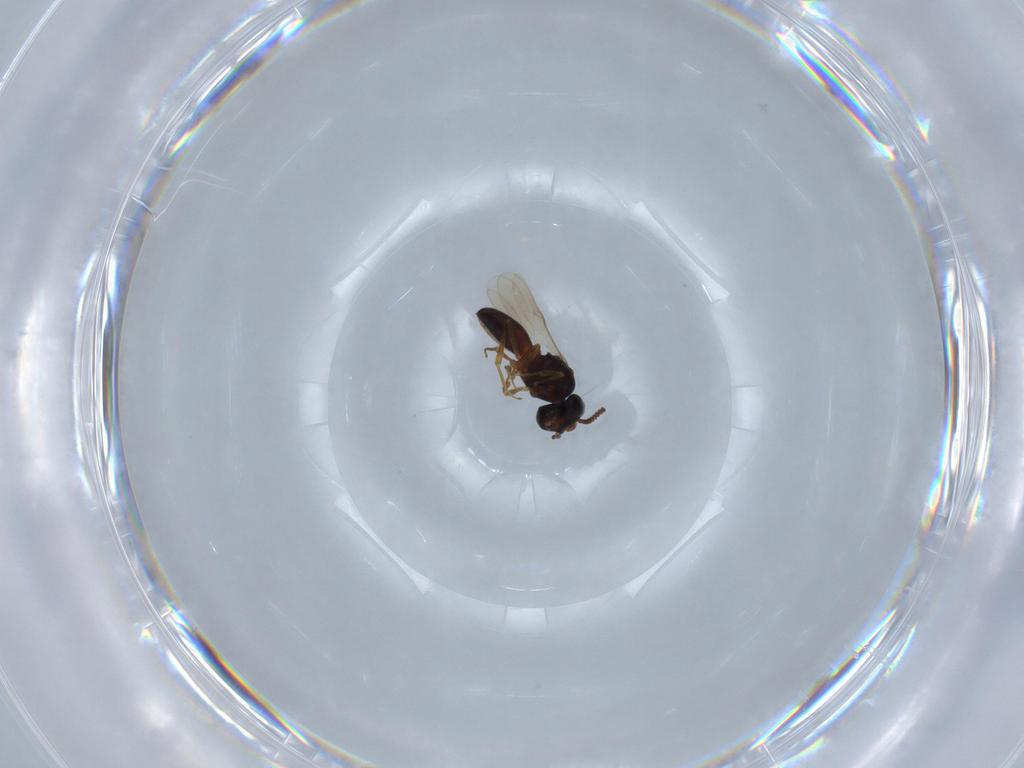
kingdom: Animalia
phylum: Arthropoda
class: Insecta
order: Hymenoptera
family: Scelionidae
